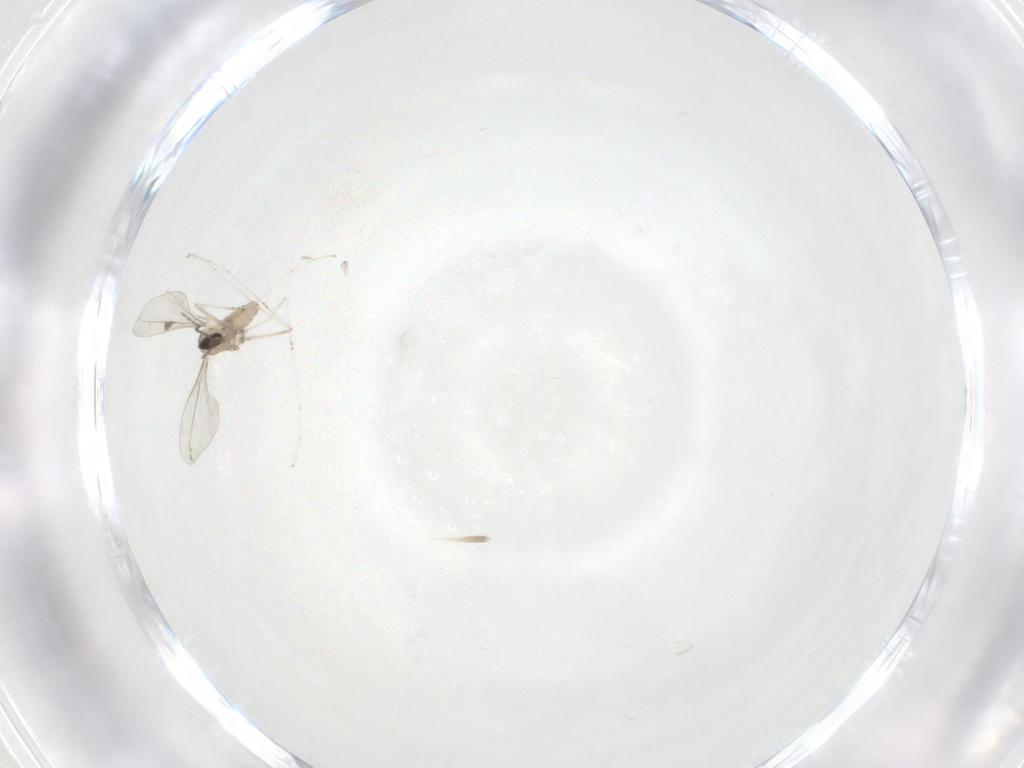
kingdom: Animalia
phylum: Arthropoda
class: Insecta
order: Diptera
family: Cecidomyiidae
